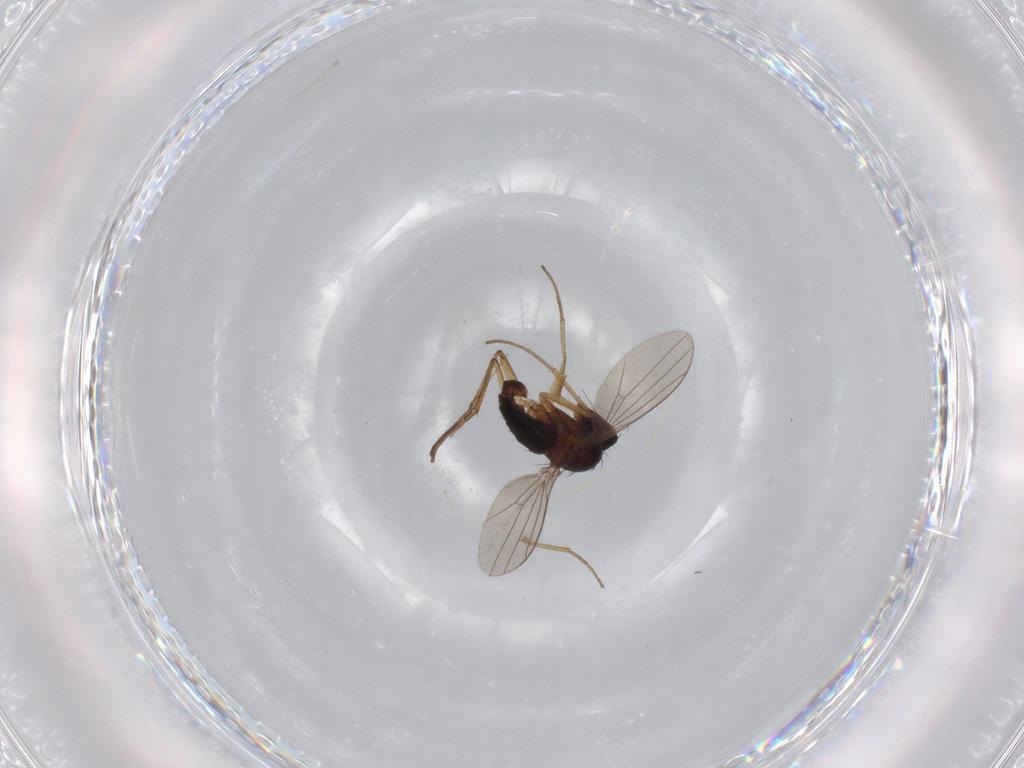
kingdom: Animalia
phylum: Arthropoda
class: Insecta
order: Diptera
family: Dolichopodidae
